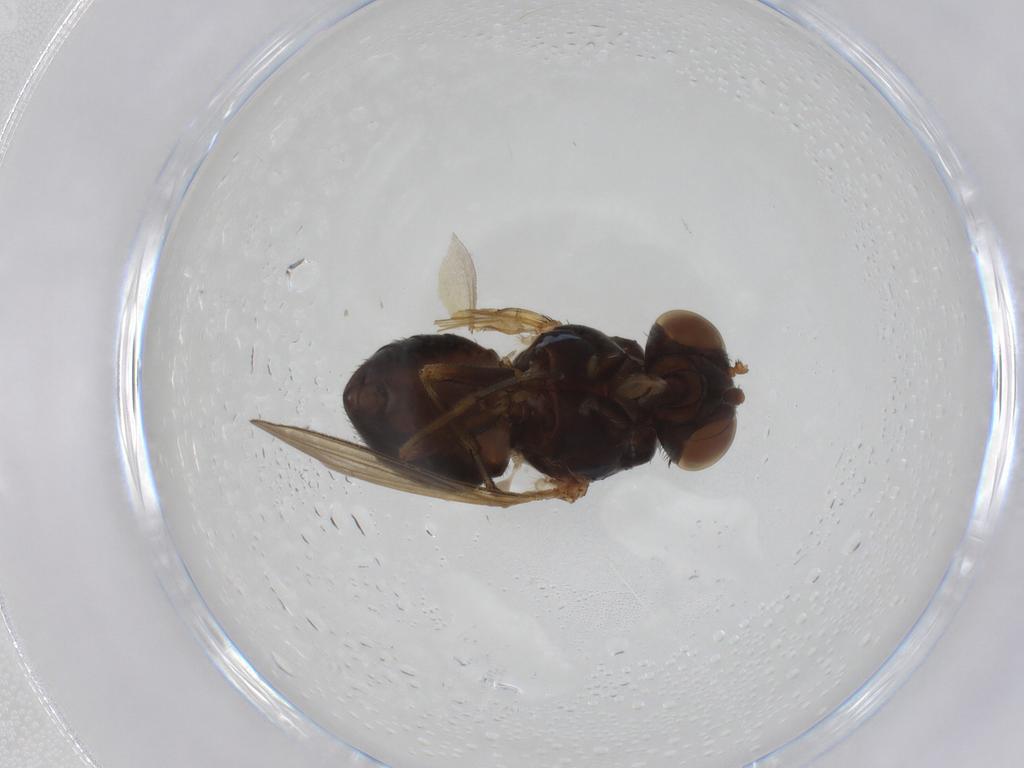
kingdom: Animalia
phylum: Arthropoda
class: Insecta
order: Diptera
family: Lauxaniidae
